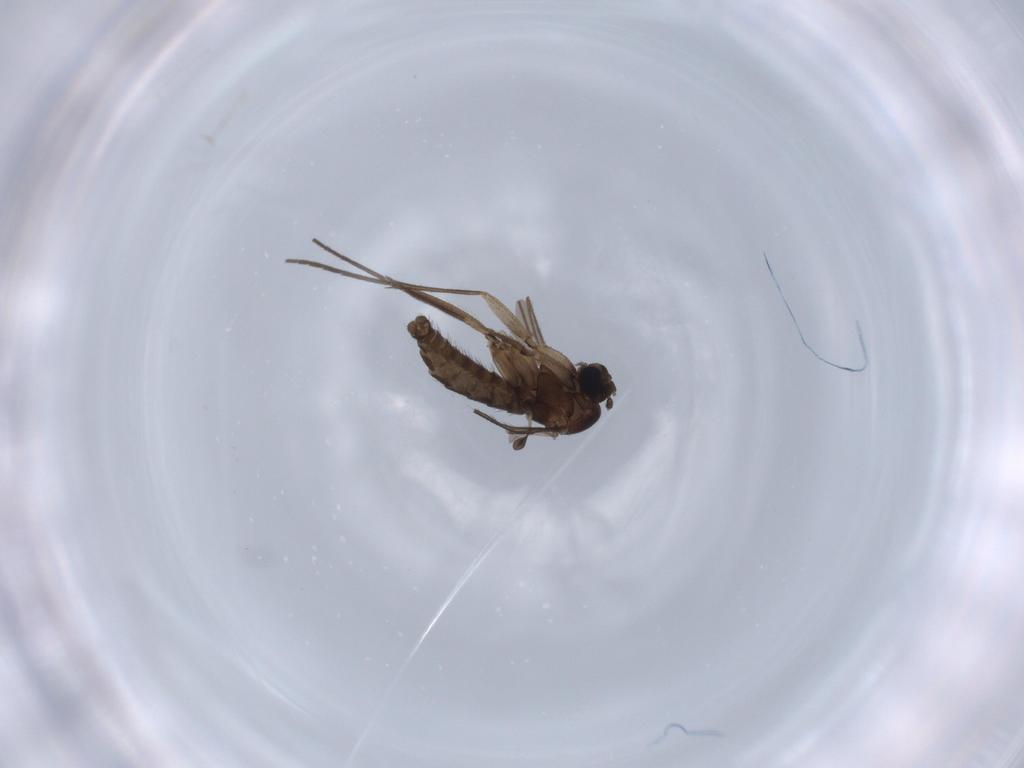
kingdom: Animalia
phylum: Arthropoda
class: Insecta
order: Diptera
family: Sciaridae
